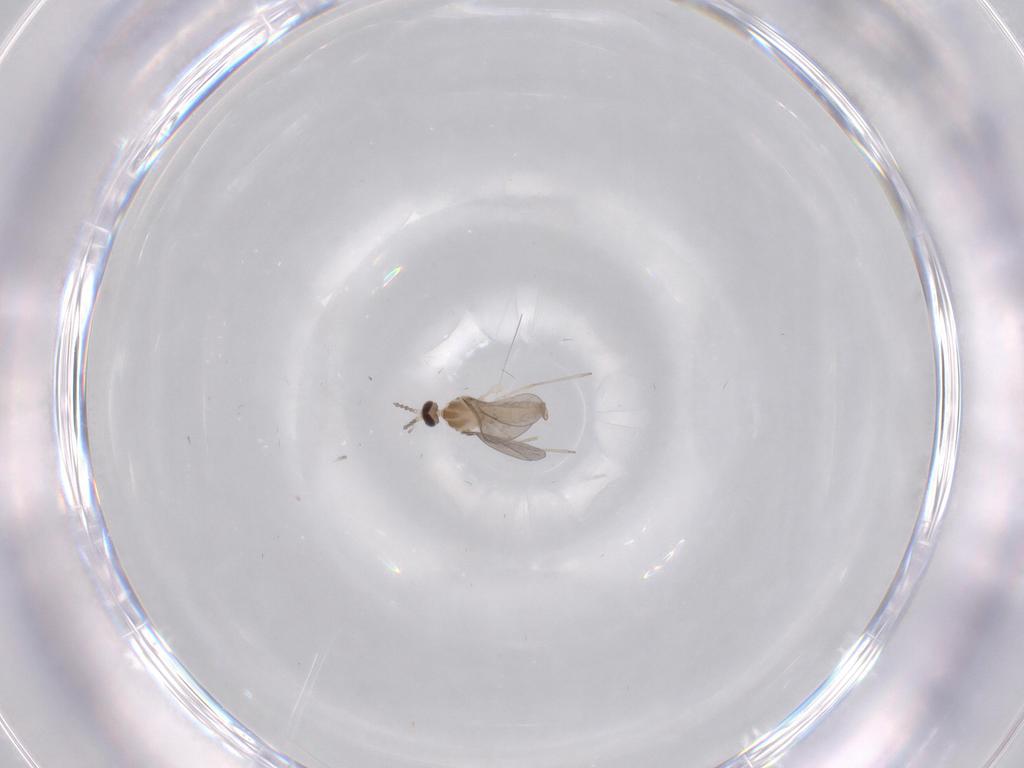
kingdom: Animalia
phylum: Arthropoda
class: Insecta
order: Diptera
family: Cecidomyiidae
